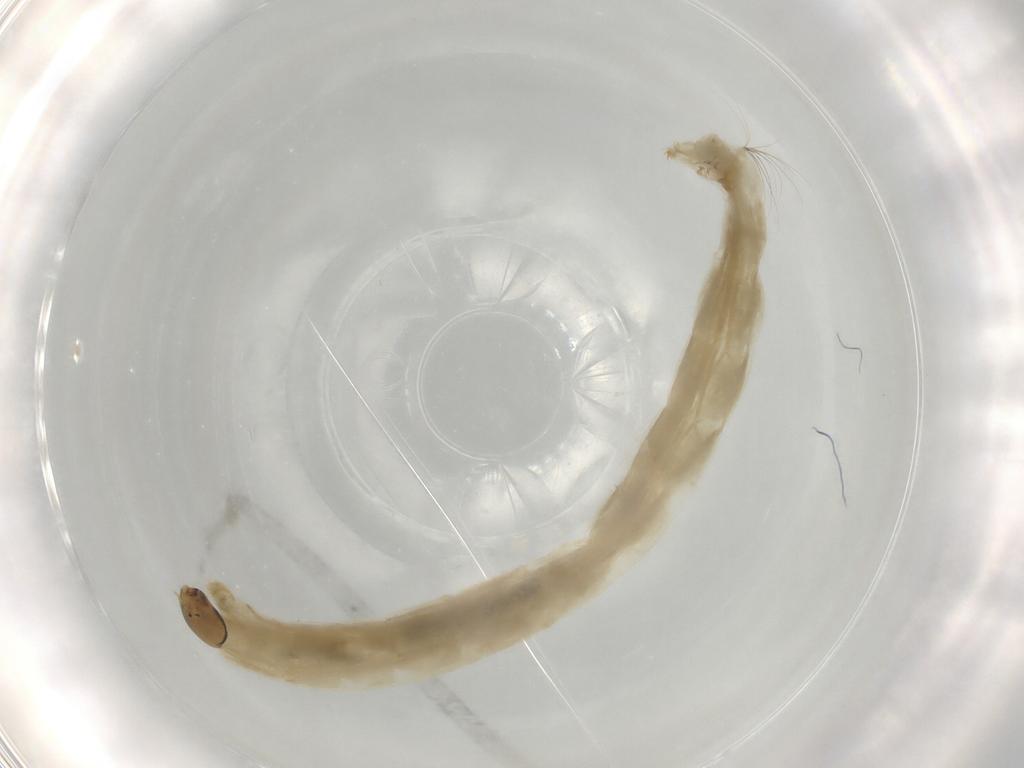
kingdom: Animalia
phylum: Arthropoda
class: Insecta
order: Diptera
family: Chironomidae
